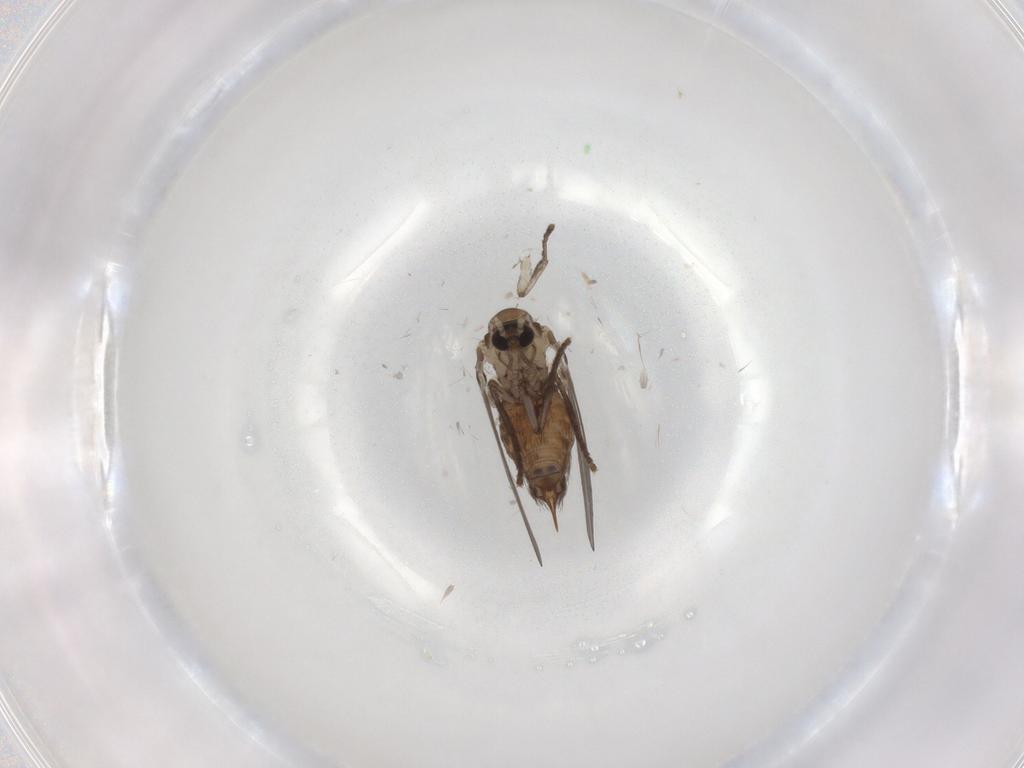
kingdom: Animalia
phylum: Arthropoda
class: Insecta
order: Diptera
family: Psychodidae
